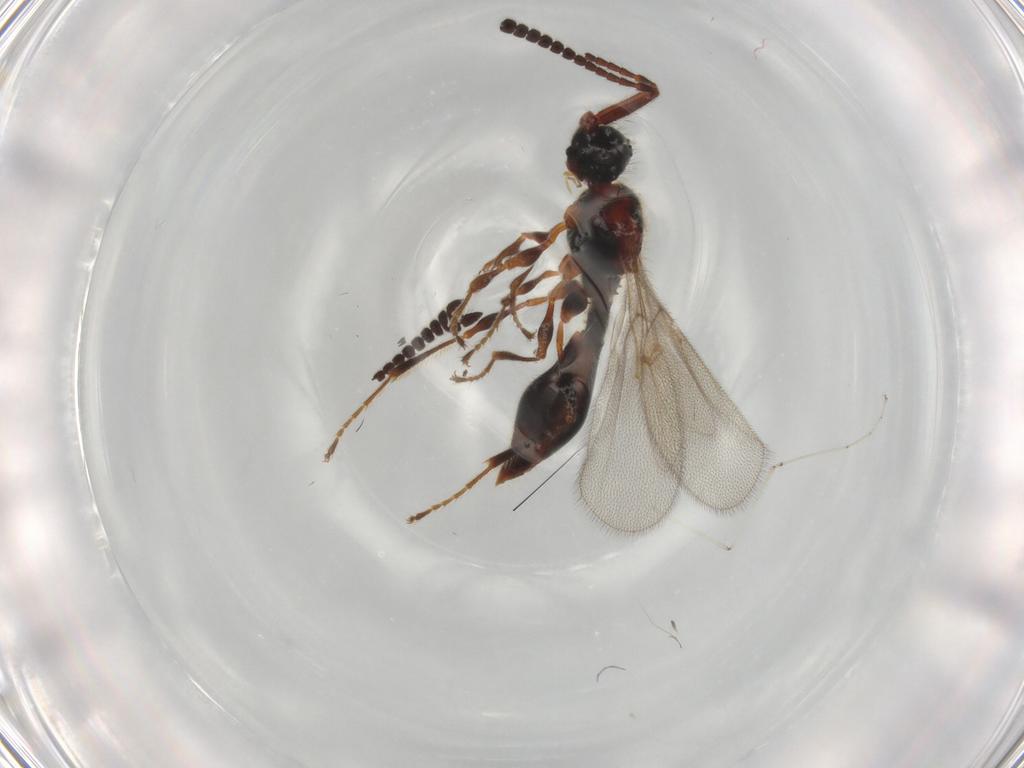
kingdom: Animalia
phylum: Arthropoda
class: Insecta
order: Hymenoptera
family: Diapriidae
